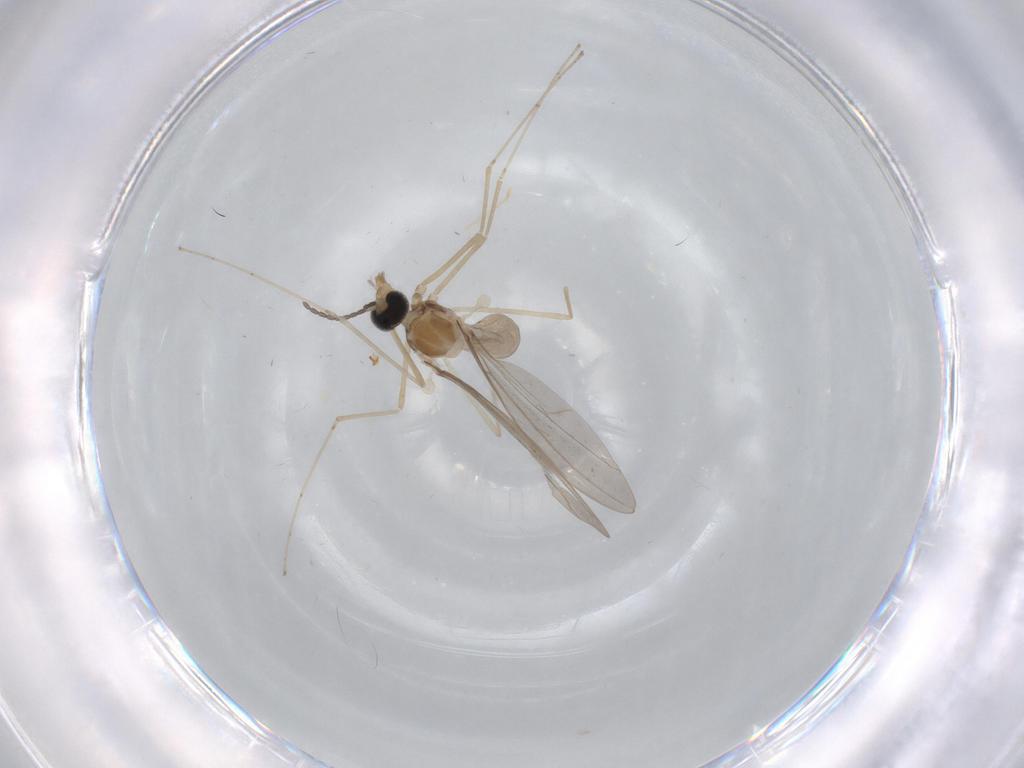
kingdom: Animalia
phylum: Arthropoda
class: Insecta
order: Diptera
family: Cecidomyiidae
